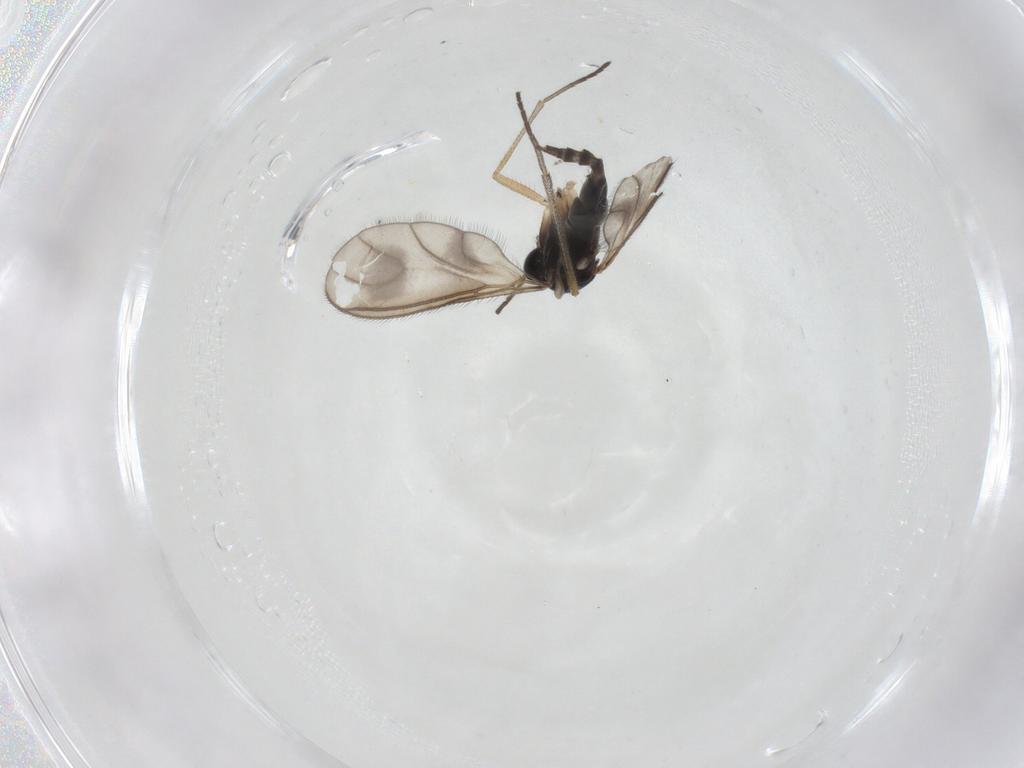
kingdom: Animalia
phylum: Arthropoda
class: Insecta
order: Diptera
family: Sciaridae
